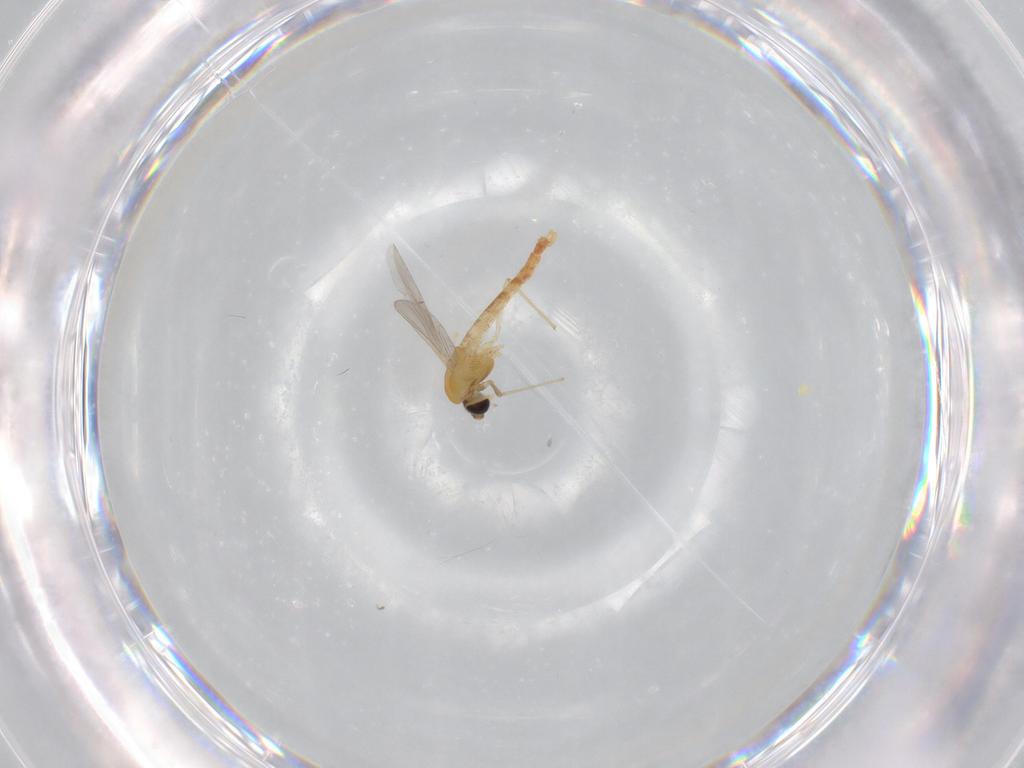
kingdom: Animalia
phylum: Arthropoda
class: Insecta
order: Diptera
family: Chironomidae
